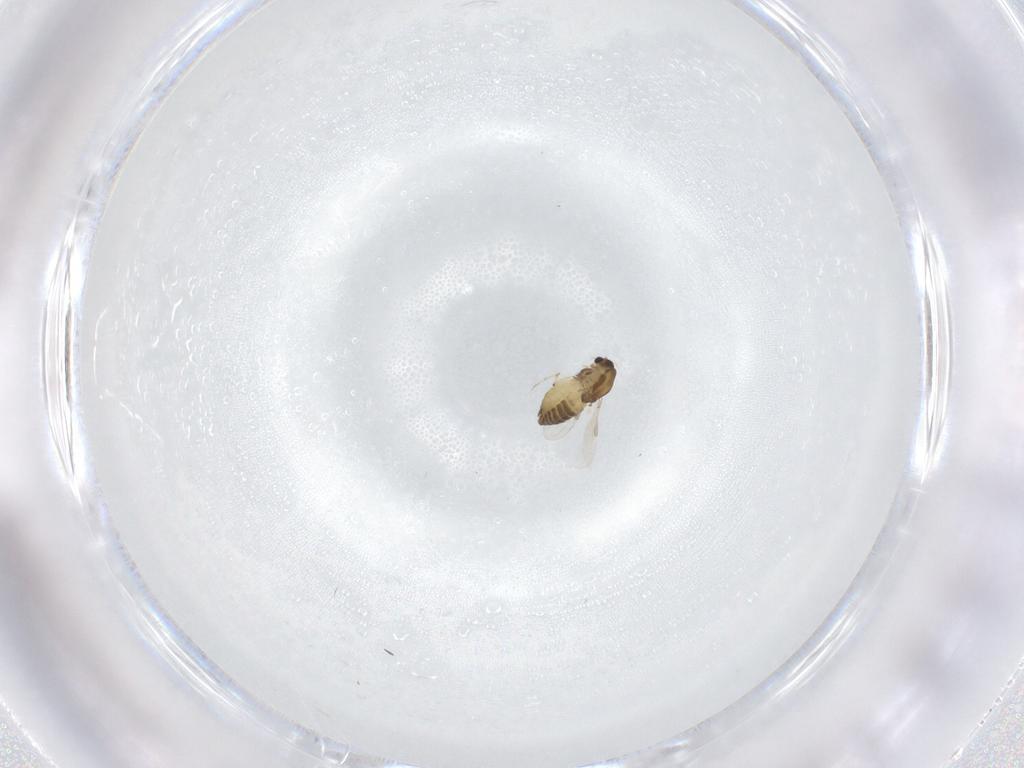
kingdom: Animalia
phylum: Arthropoda
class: Insecta
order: Diptera
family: Chironomidae
